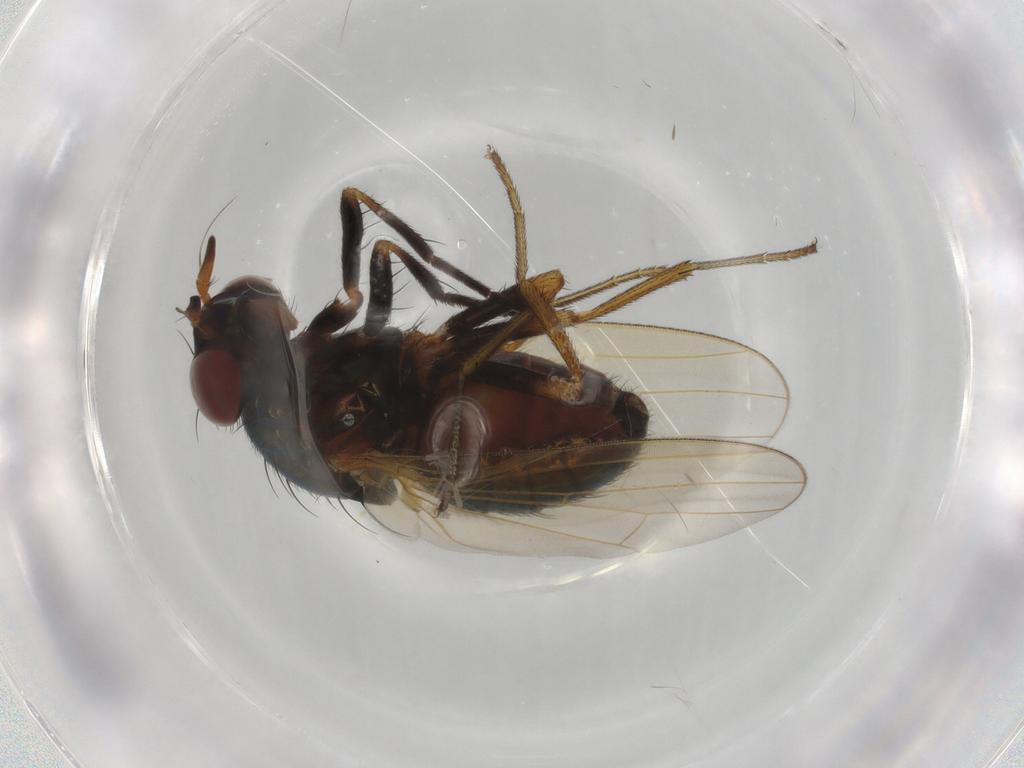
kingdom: Animalia
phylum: Arthropoda
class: Insecta
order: Diptera
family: Lauxaniidae
